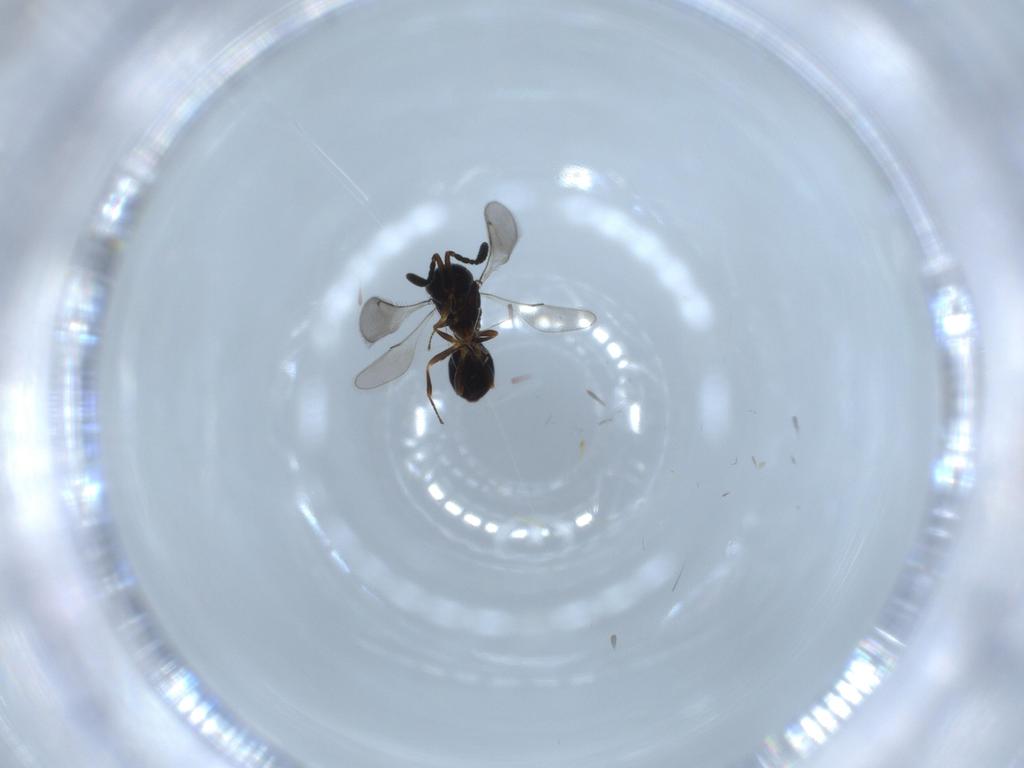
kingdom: Animalia
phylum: Arthropoda
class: Insecta
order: Hymenoptera
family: Scelionidae
